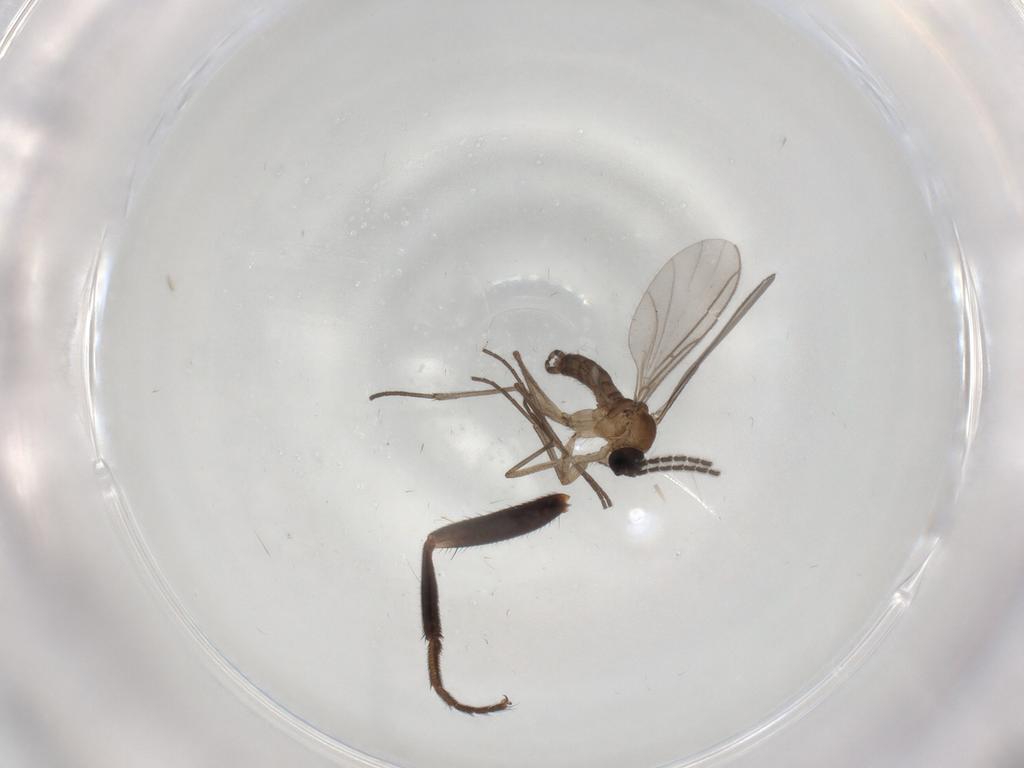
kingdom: Animalia
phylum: Arthropoda
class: Insecta
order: Diptera
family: Richardiidae
